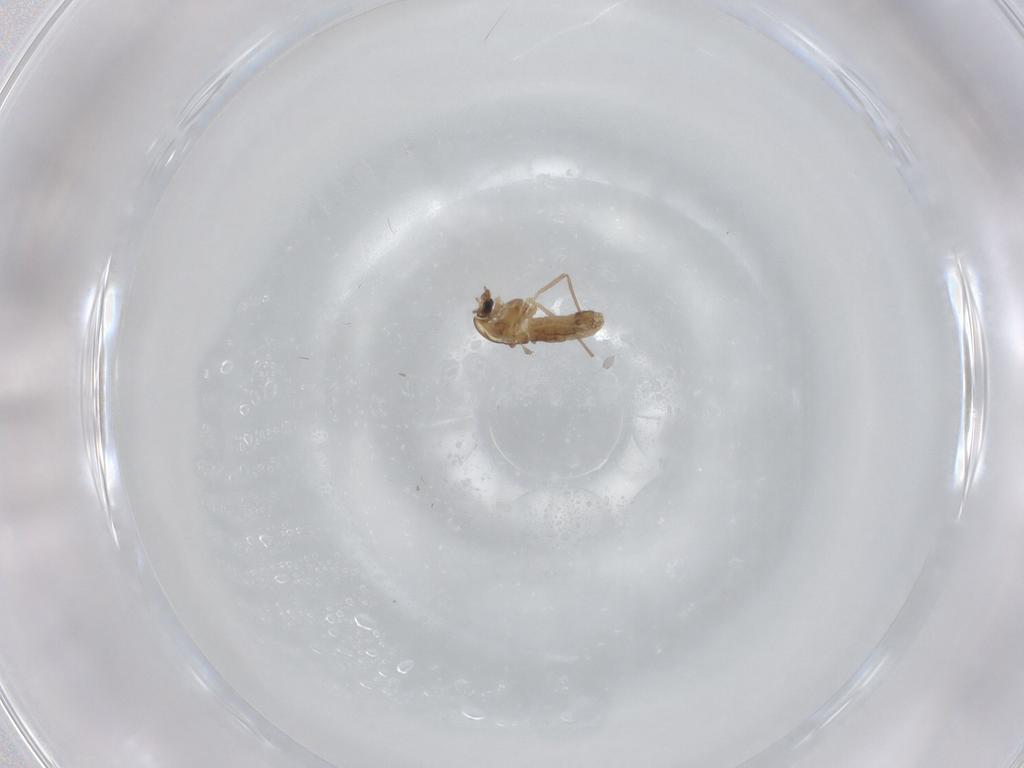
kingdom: Animalia
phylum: Arthropoda
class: Insecta
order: Diptera
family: Chironomidae
